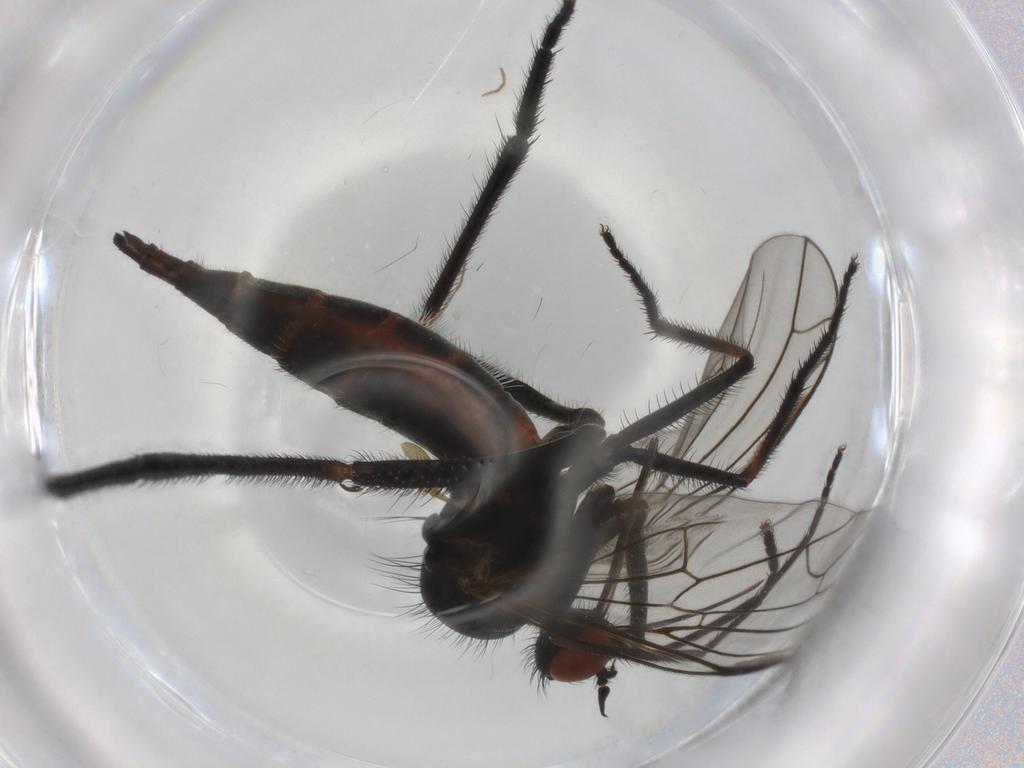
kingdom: Animalia
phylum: Arthropoda
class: Insecta
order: Diptera
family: Empididae
